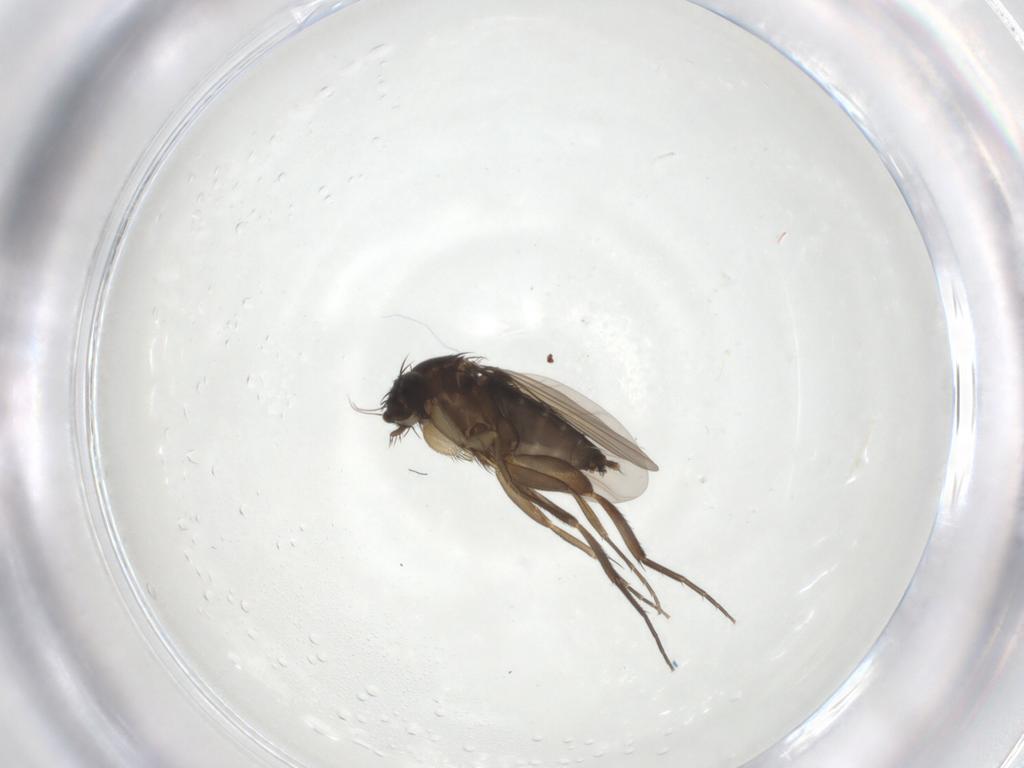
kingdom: Animalia
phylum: Arthropoda
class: Insecta
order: Diptera
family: Phoridae
